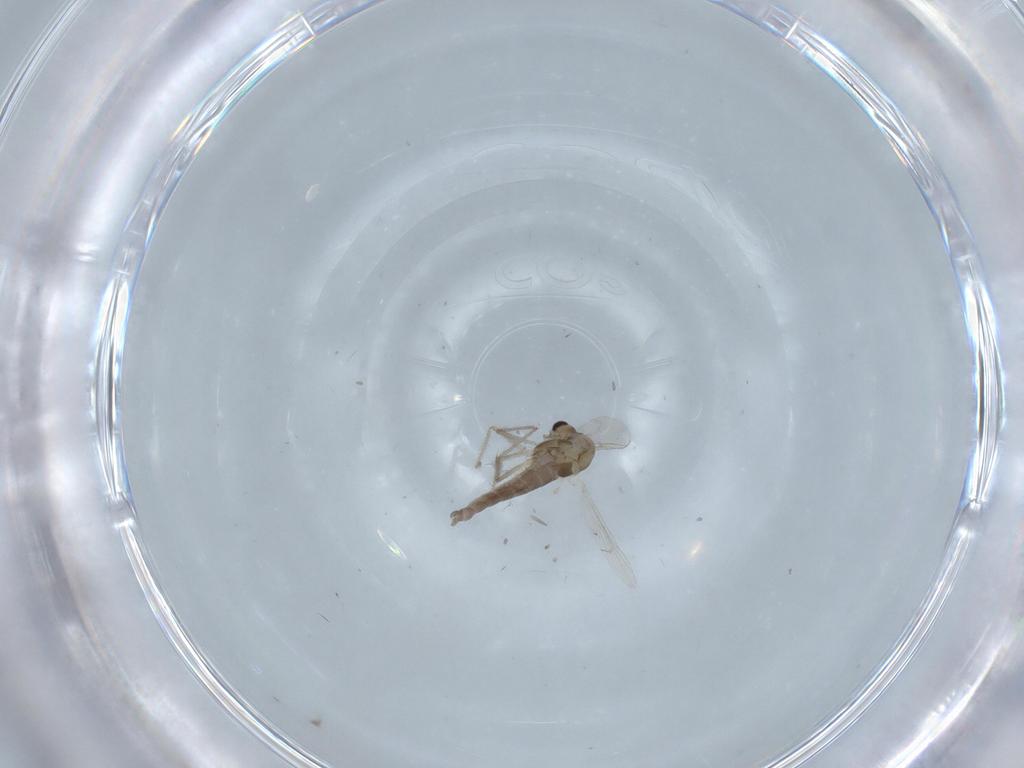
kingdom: Animalia
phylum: Arthropoda
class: Insecta
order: Diptera
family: Chironomidae
